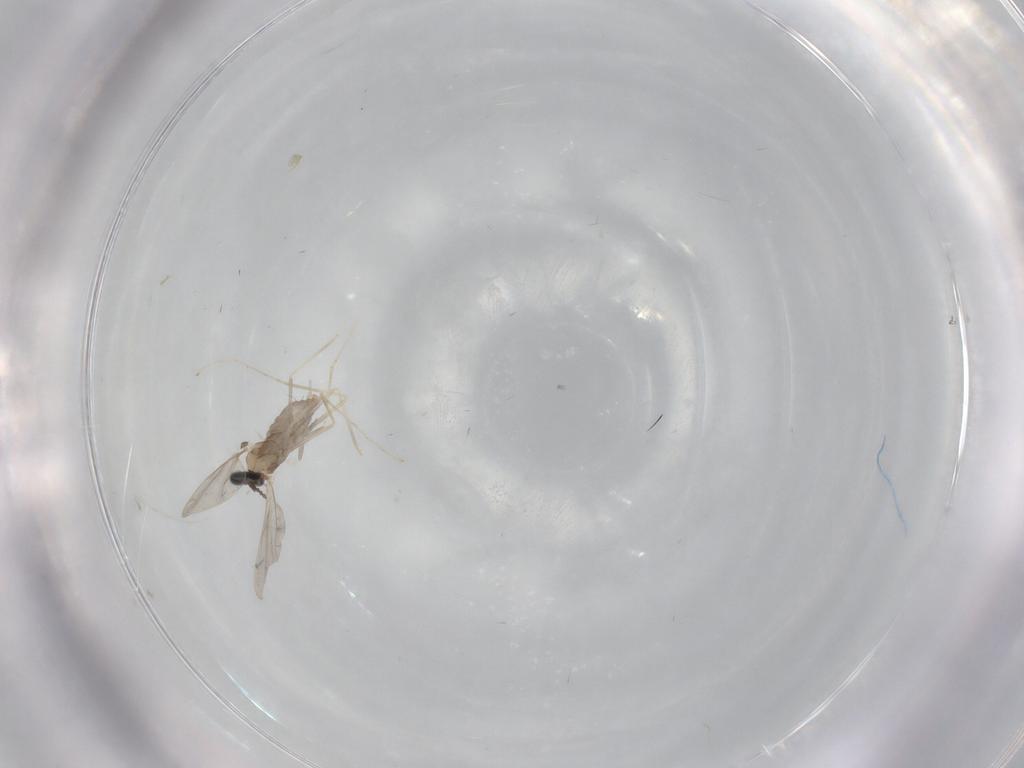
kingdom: Animalia
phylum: Arthropoda
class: Insecta
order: Diptera
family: Cecidomyiidae
